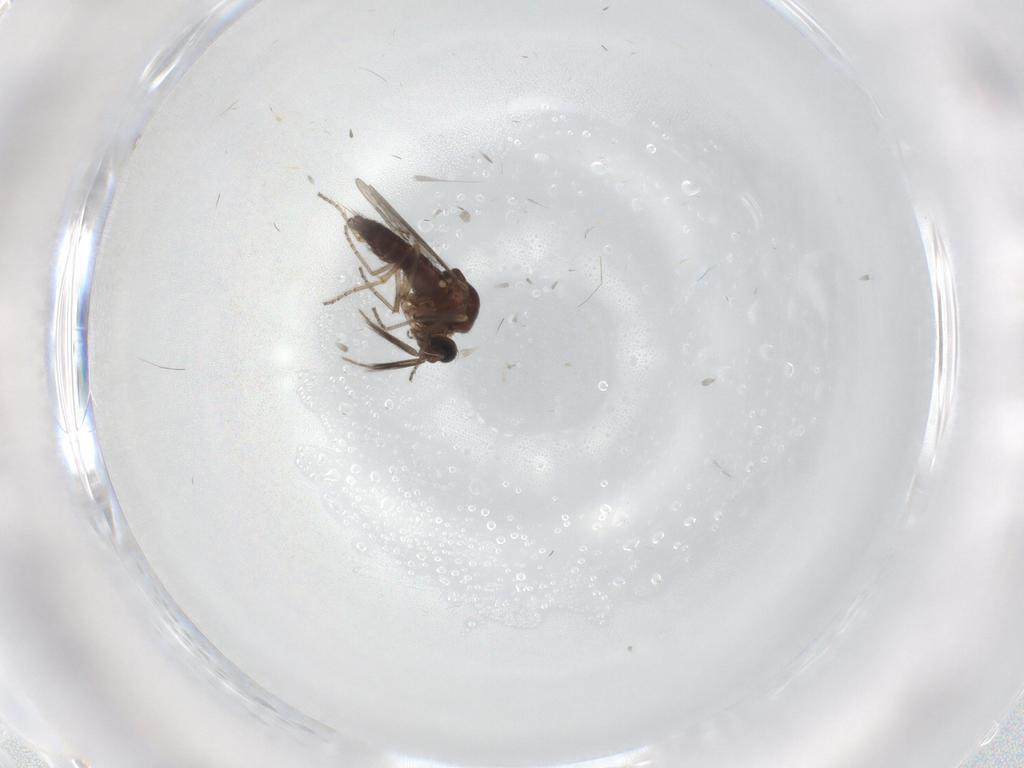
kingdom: Animalia
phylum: Arthropoda
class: Insecta
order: Diptera
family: Ceratopogonidae
